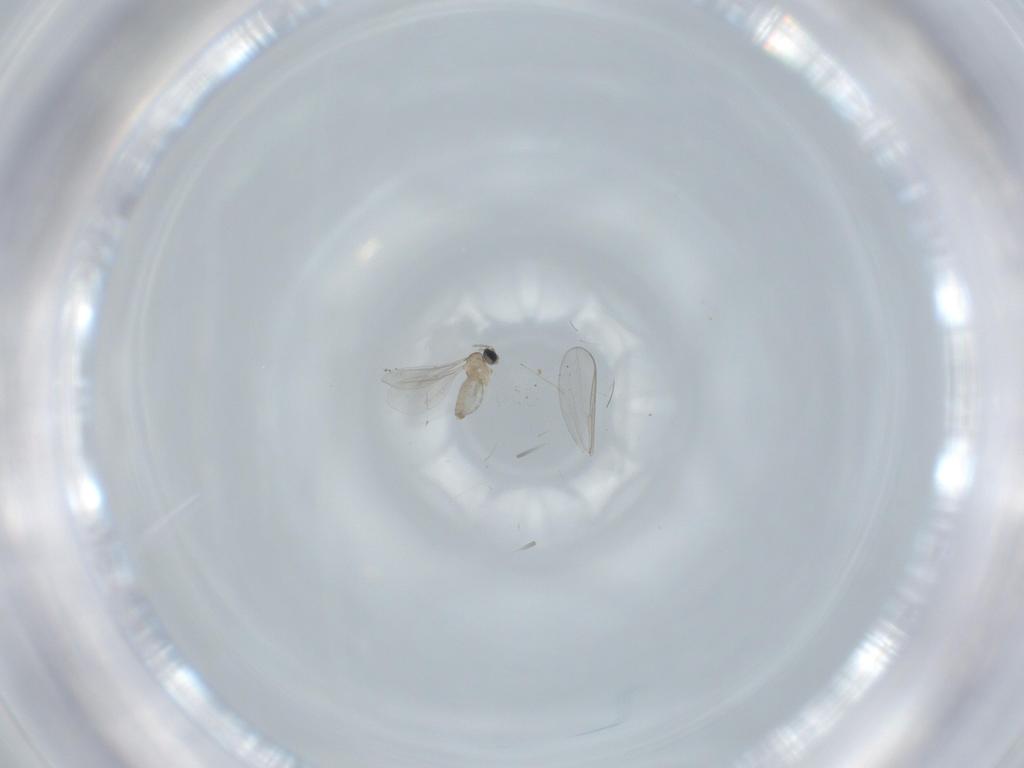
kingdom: Animalia
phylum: Arthropoda
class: Insecta
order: Diptera
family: Cecidomyiidae
